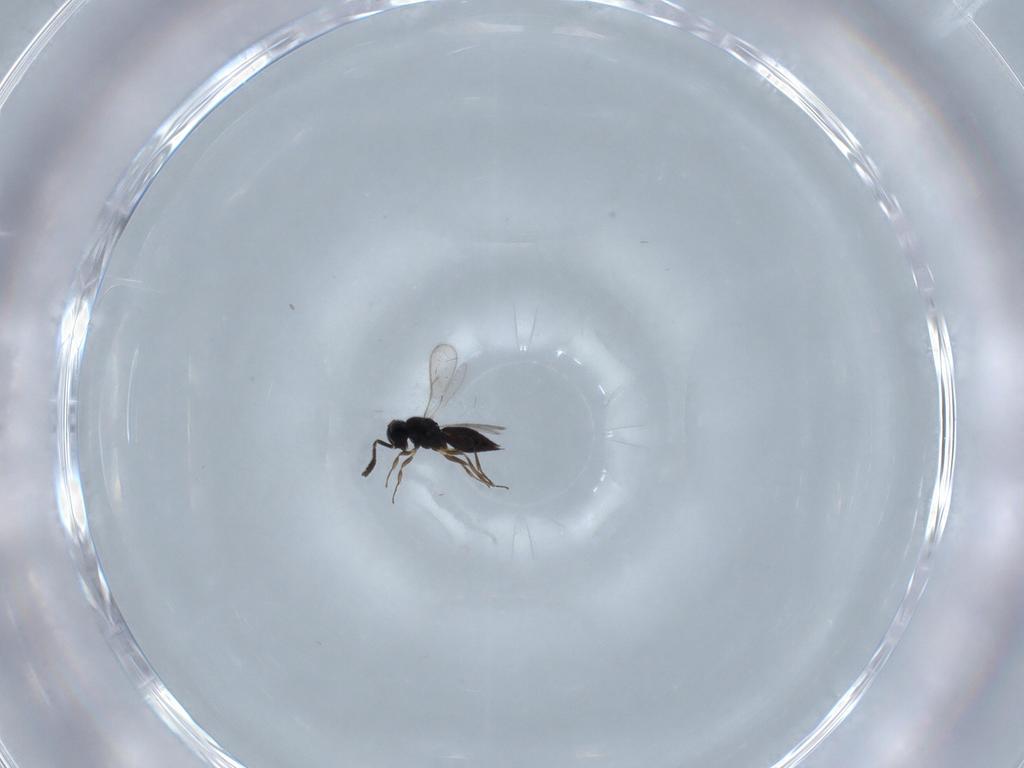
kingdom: Animalia
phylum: Arthropoda
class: Insecta
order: Hymenoptera
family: Scelionidae
